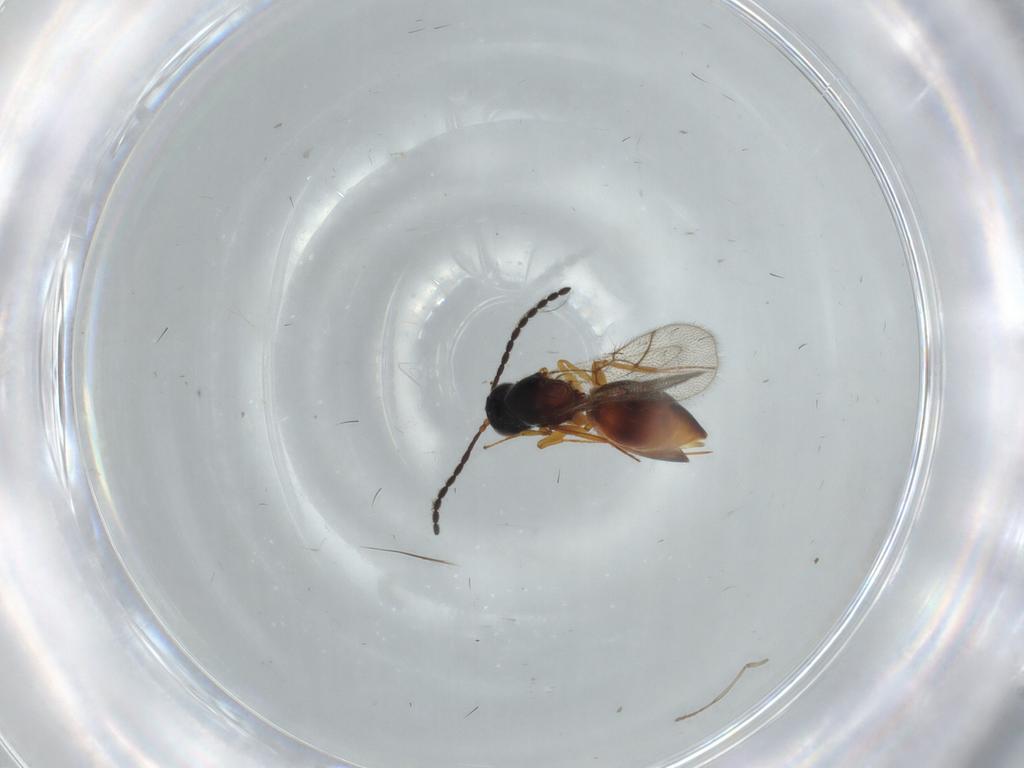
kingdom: Animalia
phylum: Arthropoda
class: Insecta
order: Hymenoptera
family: Figitidae
